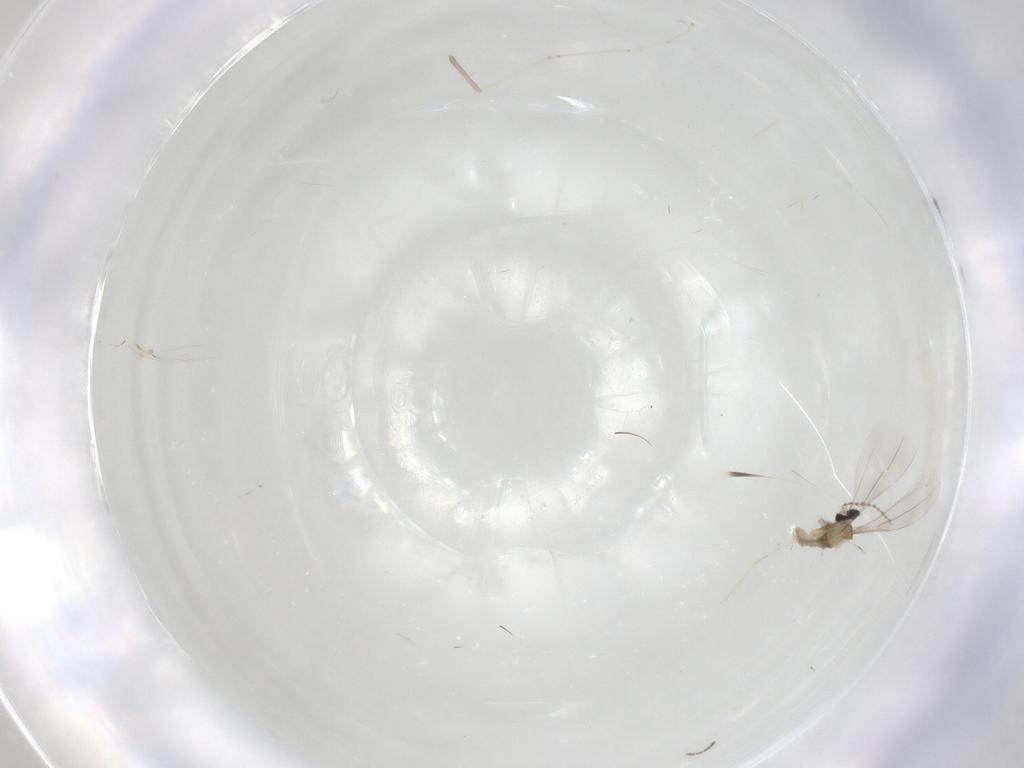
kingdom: Animalia
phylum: Arthropoda
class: Insecta
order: Diptera
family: Cecidomyiidae
